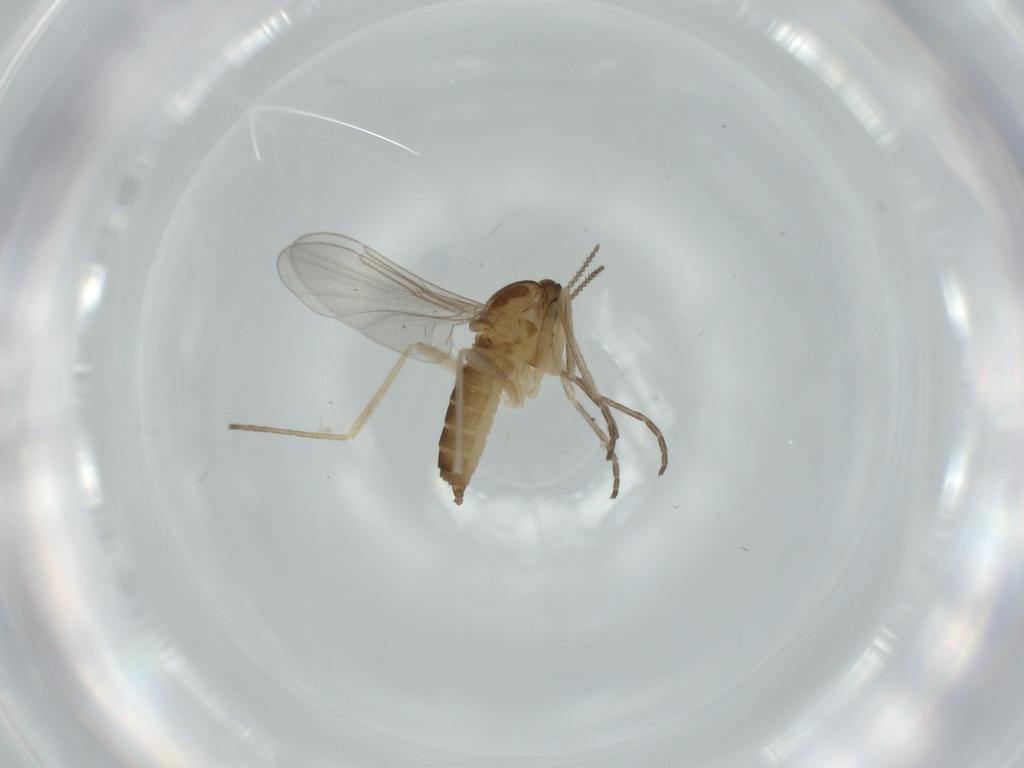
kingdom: Animalia
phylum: Arthropoda
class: Insecta
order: Diptera
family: Cecidomyiidae
